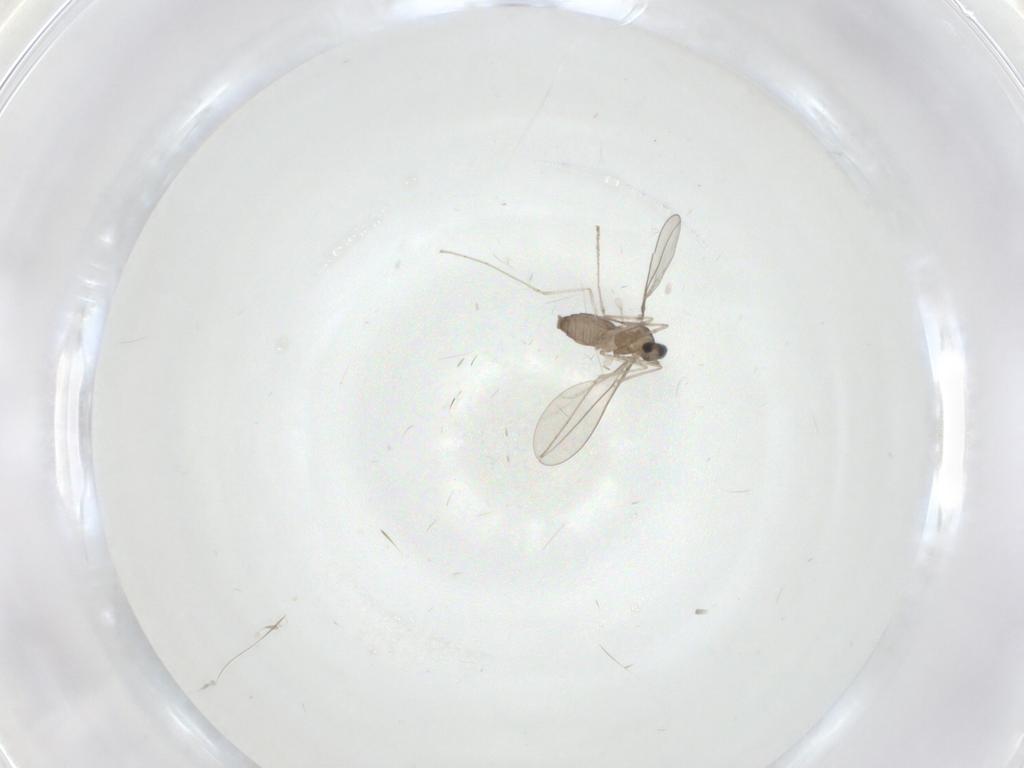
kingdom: Animalia
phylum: Arthropoda
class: Insecta
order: Diptera
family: Cecidomyiidae
